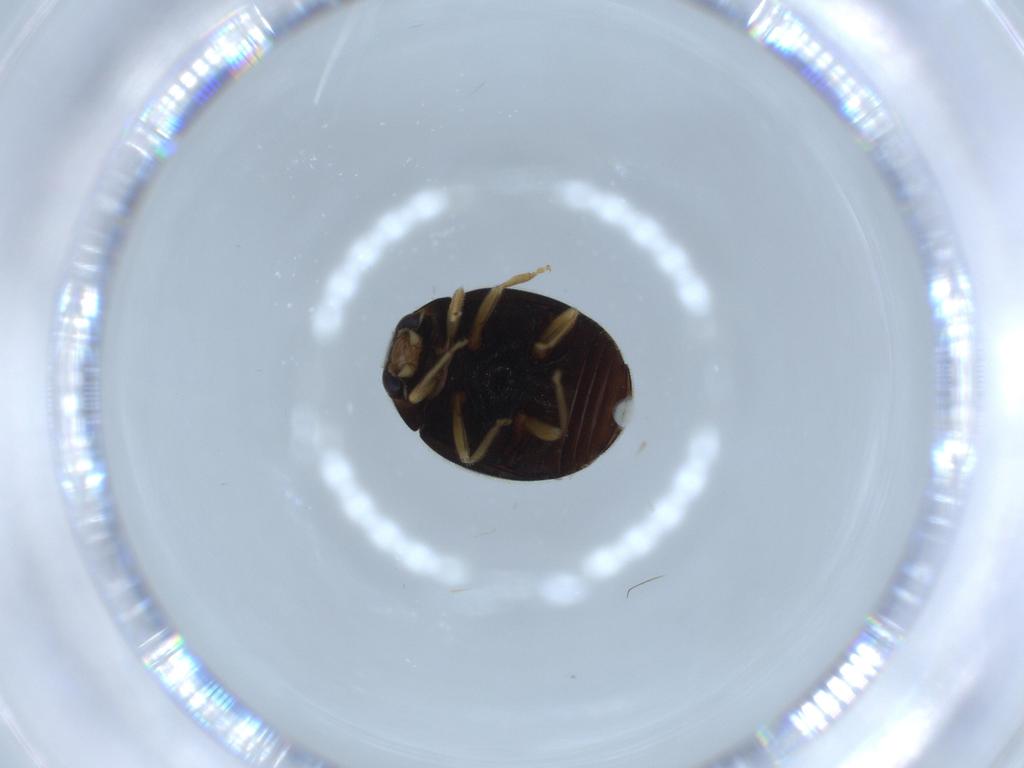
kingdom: Animalia
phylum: Arthropoda
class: Insecta
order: Coleoptera
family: Coccinellidae
